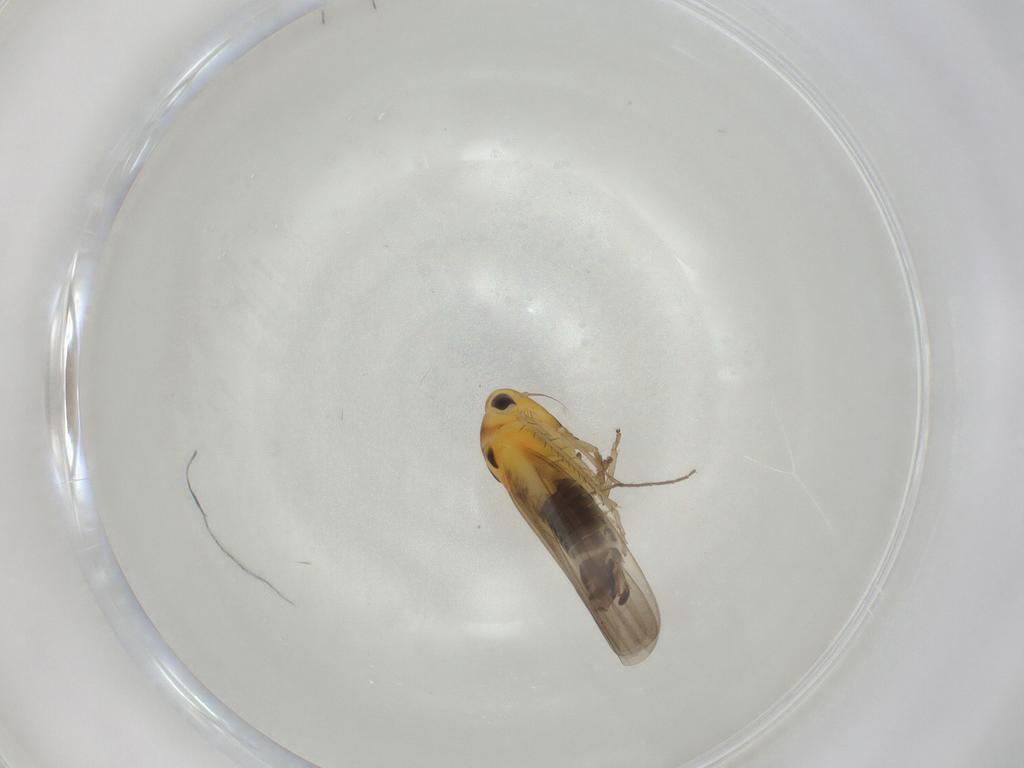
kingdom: Animalia
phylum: Arthropoda
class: Insecta
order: Hemiptera
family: Cicadellidae
